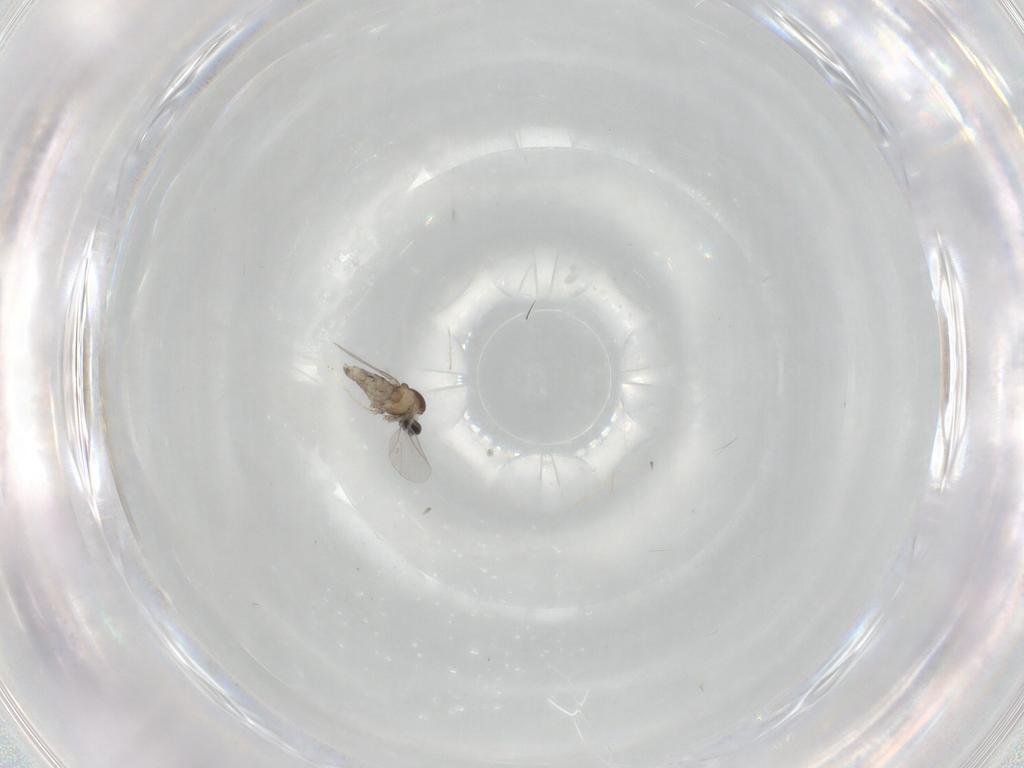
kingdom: Animalia
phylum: Arthropoda
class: Insecta
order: Diptera
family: Cecidomyiidae
